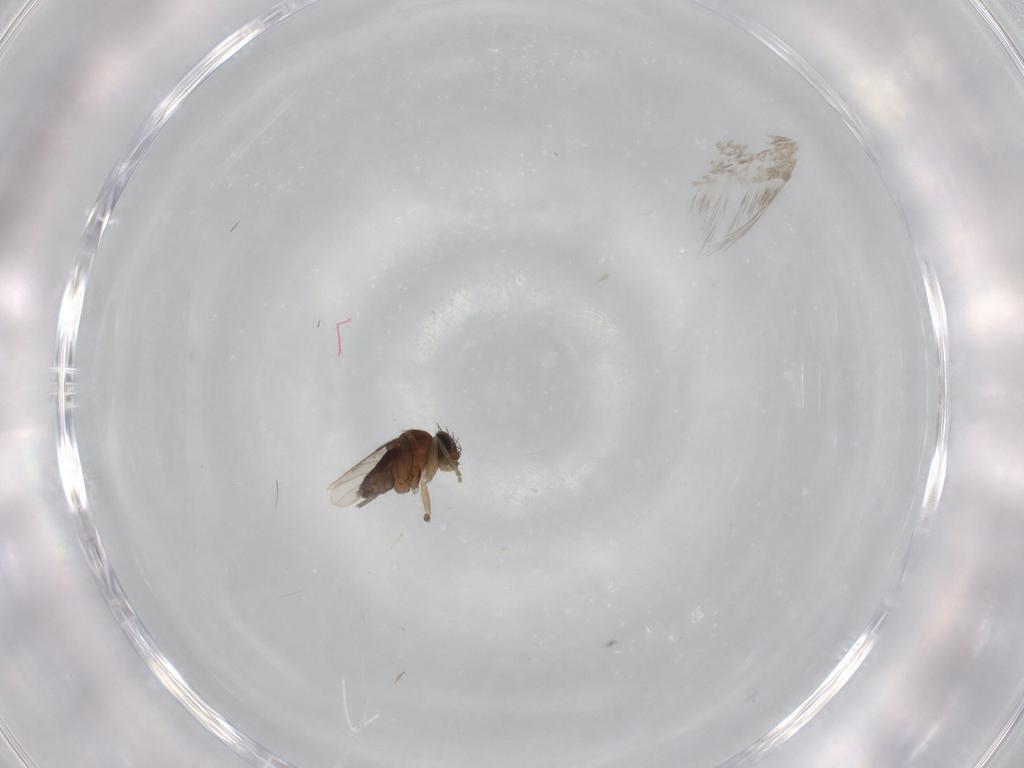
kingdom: Animalia
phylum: Arthropoda
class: Insecta
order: Diptera
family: Phoridae
